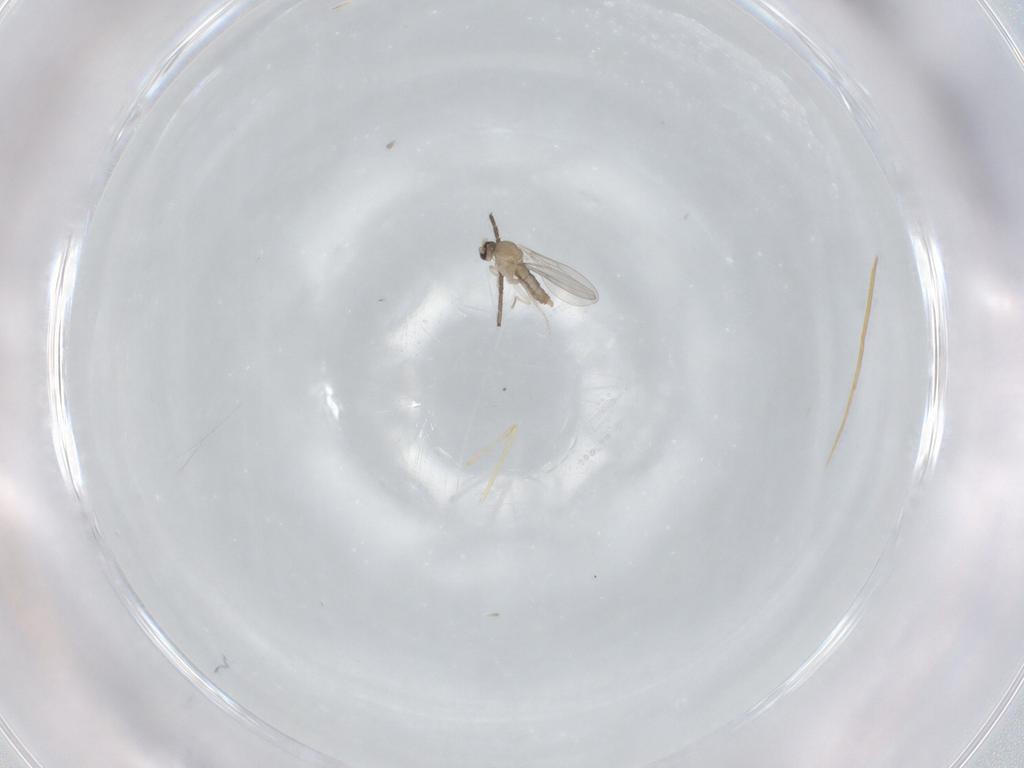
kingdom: Animalia
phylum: Arthropoda
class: Insecta
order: Diptera
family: Cecidomyiidae
